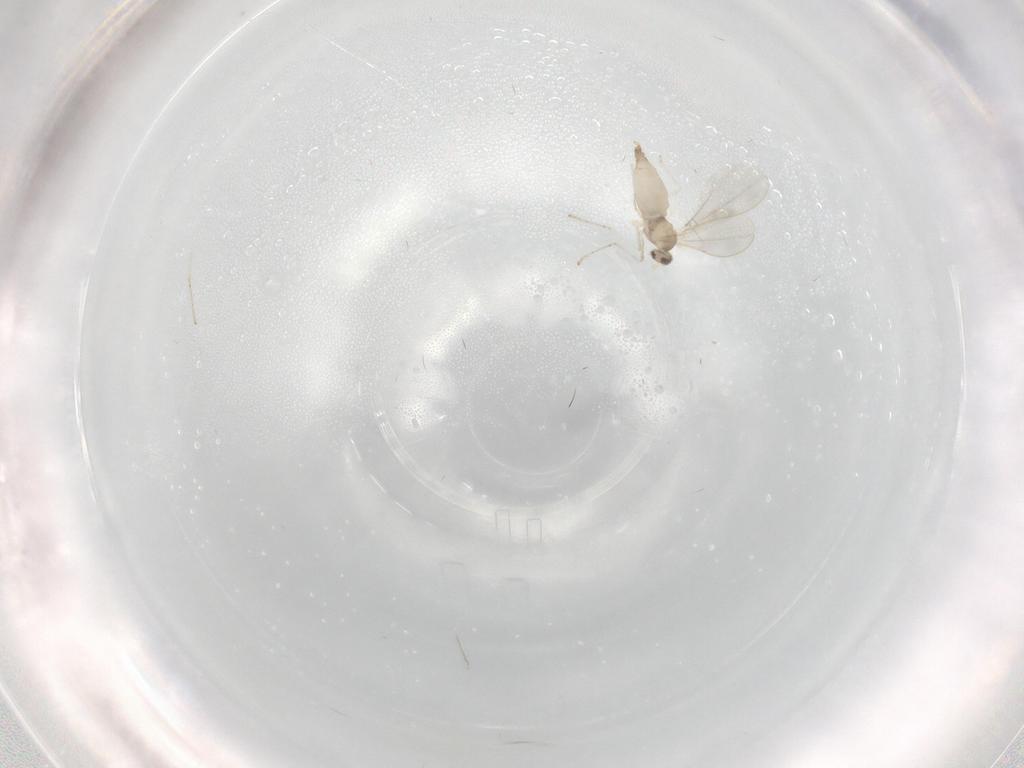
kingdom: Animalia
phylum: Arthropoda
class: Insecta
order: Diptera
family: Cecidomyiidae
